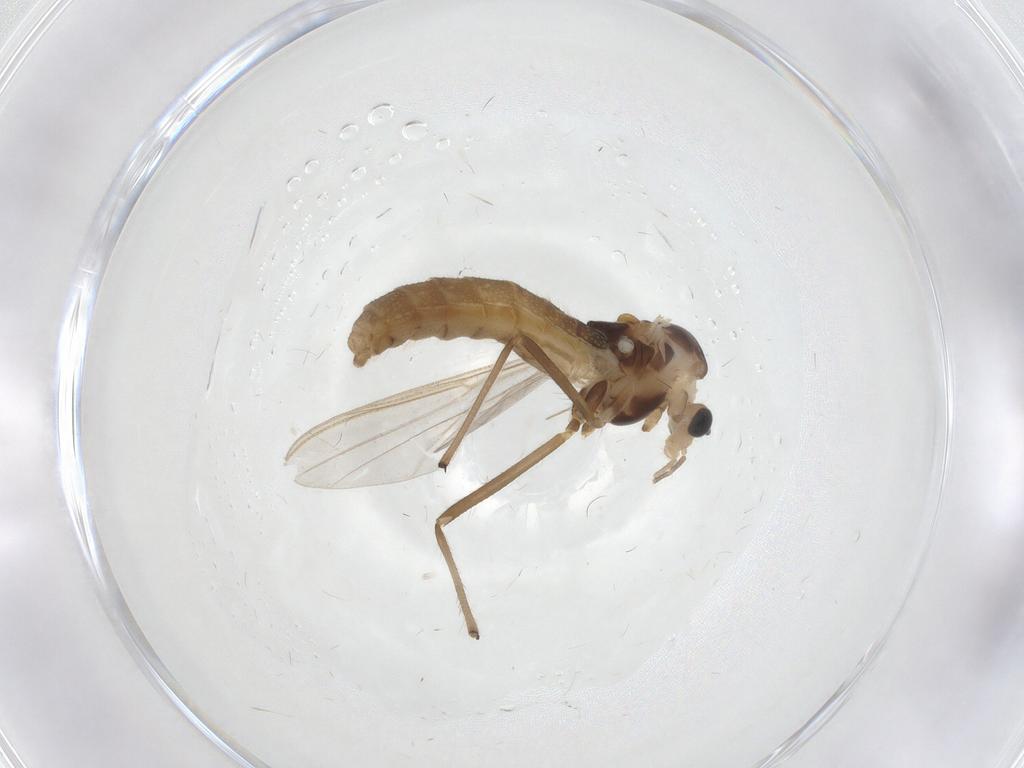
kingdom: Animalia
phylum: Arthropoda
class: Insecta
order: Diptera
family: Chironomidae
